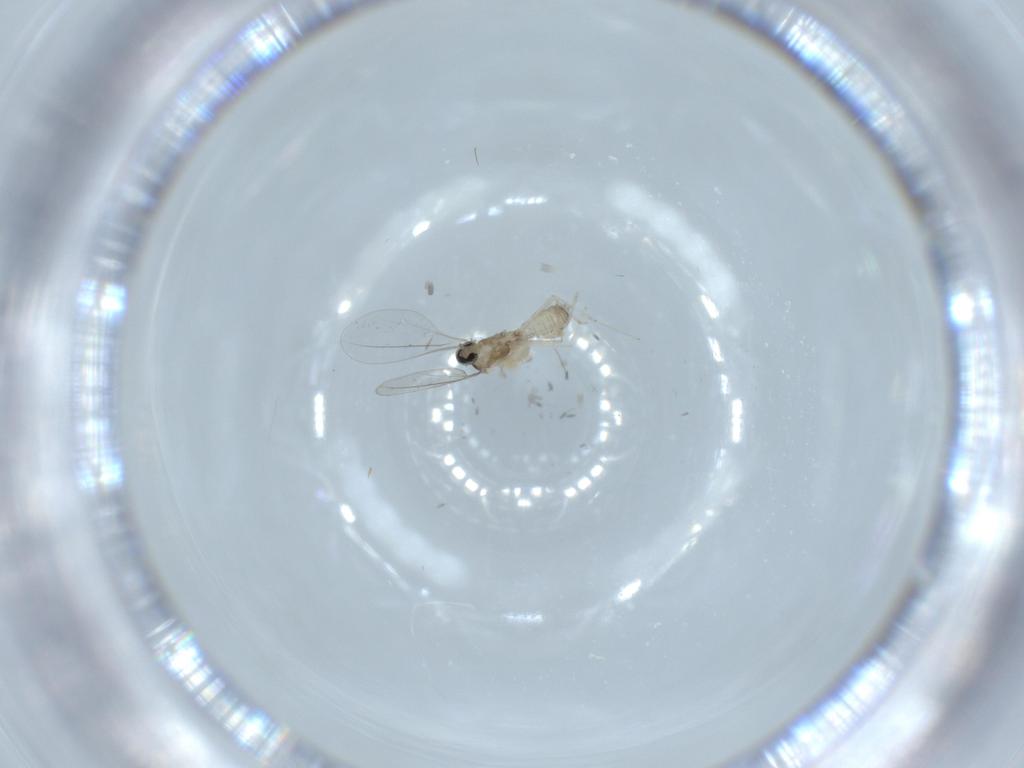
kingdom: Animalia
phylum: Arthropoda
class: Insecta
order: Diptera
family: Cecidomyiidae
